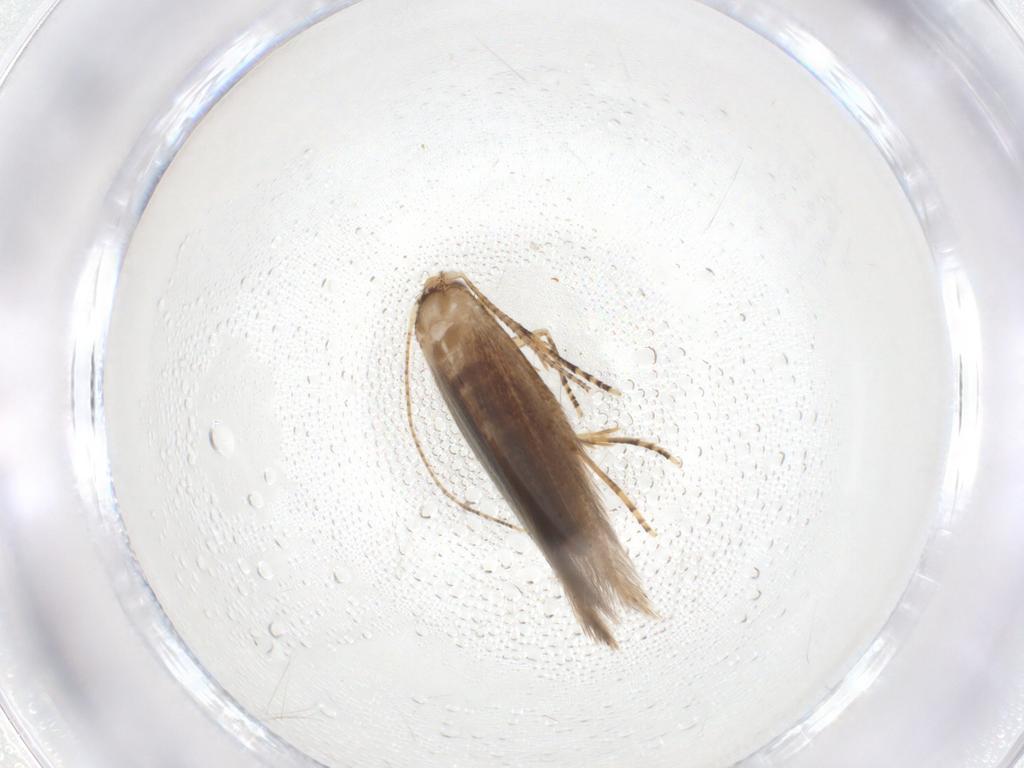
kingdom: Animalia
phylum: Arthropoda
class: Insecta
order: Lepidoptera
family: Bucculatricidae
